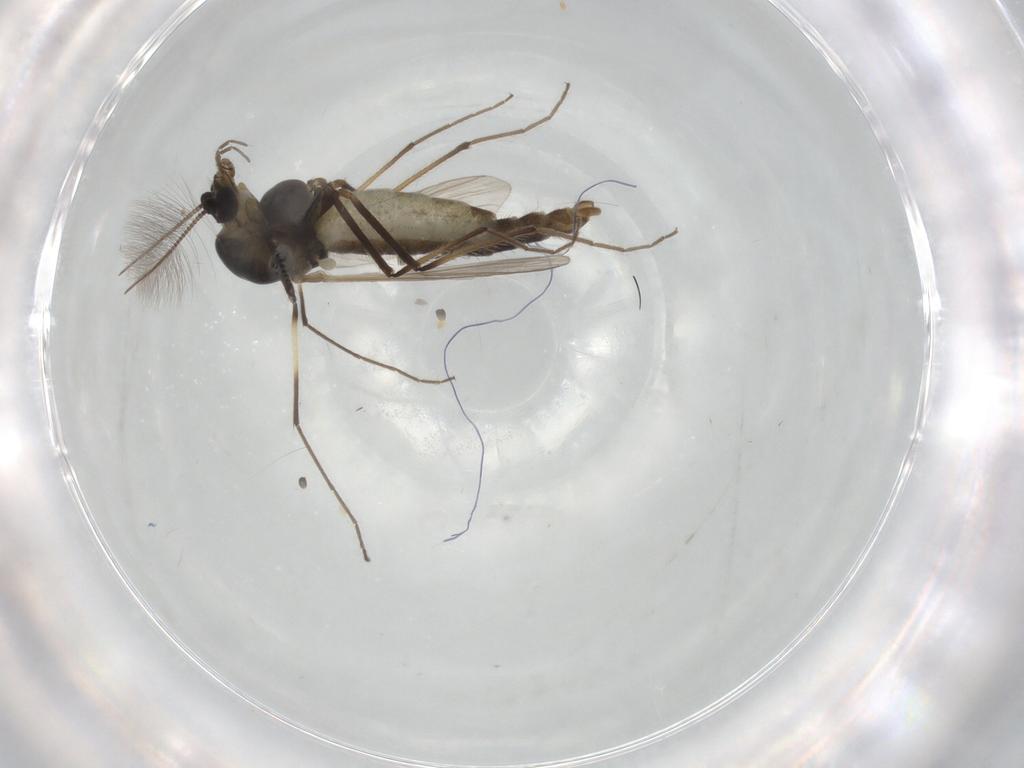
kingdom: Animalia
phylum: Arthropoda
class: Insecta
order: Diptera
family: Chironomidae
